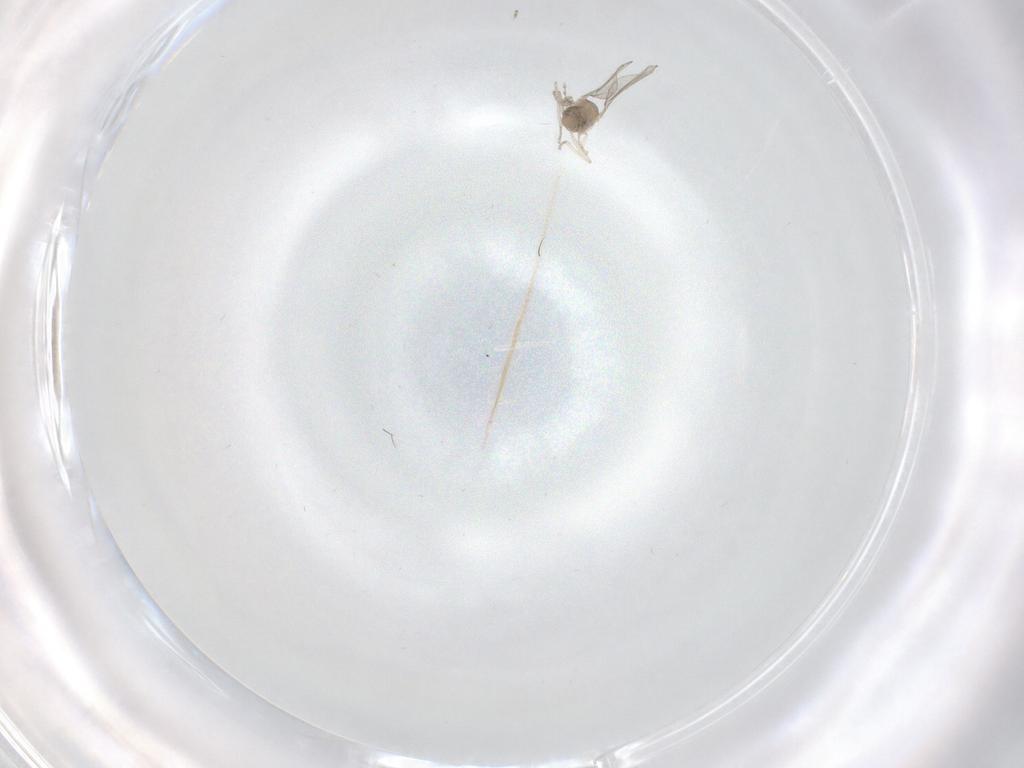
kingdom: Animalia
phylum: Arthropoda
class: Insecta
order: Diptera
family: Cecidomyiidae
